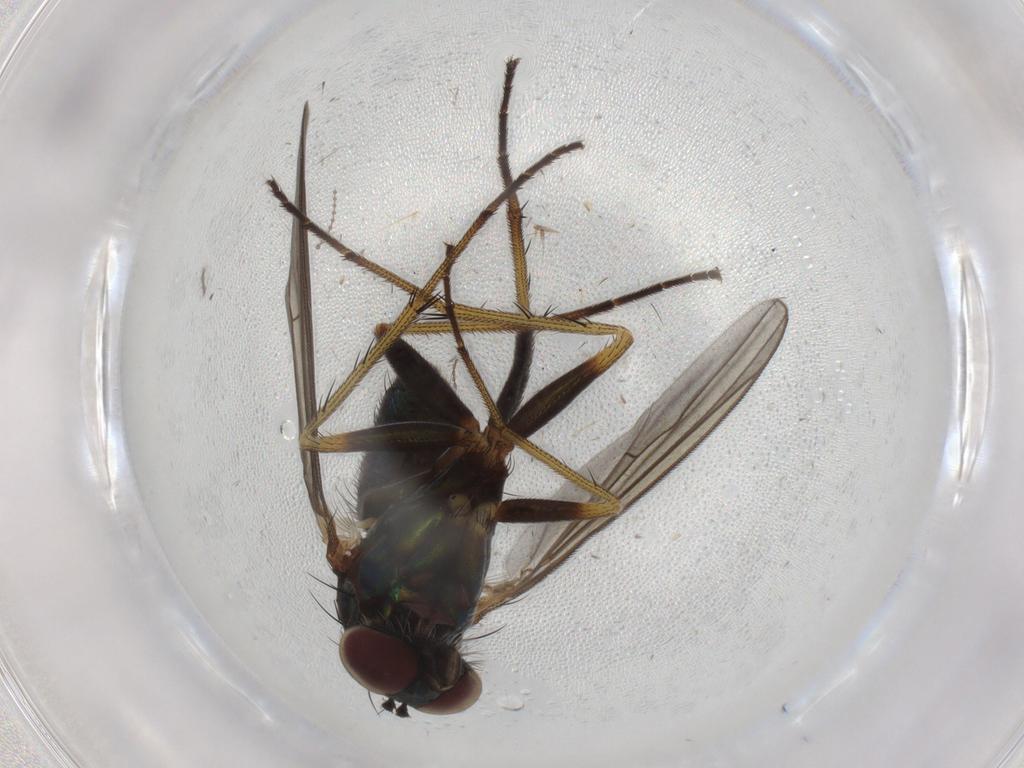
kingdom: Animalia
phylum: Arthropoda
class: Insecta
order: Diptera
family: Dolichopodidae
